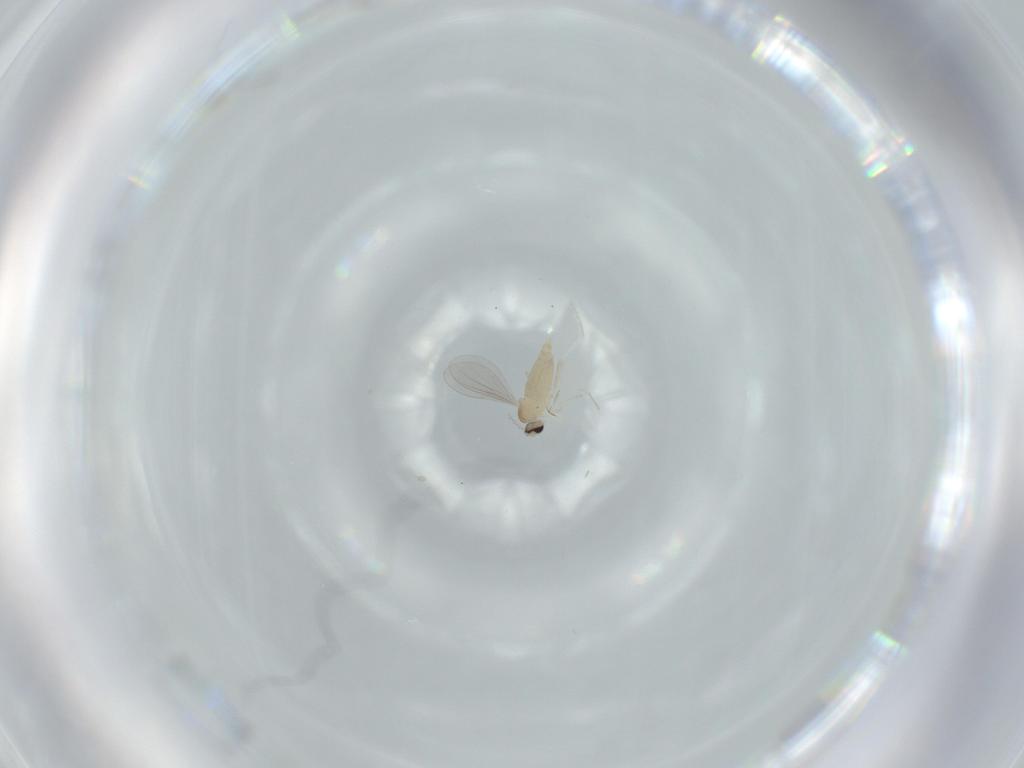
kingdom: Animalia
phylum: Arthropoda
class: Insecta
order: Diptera
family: Cecidomyiidae
